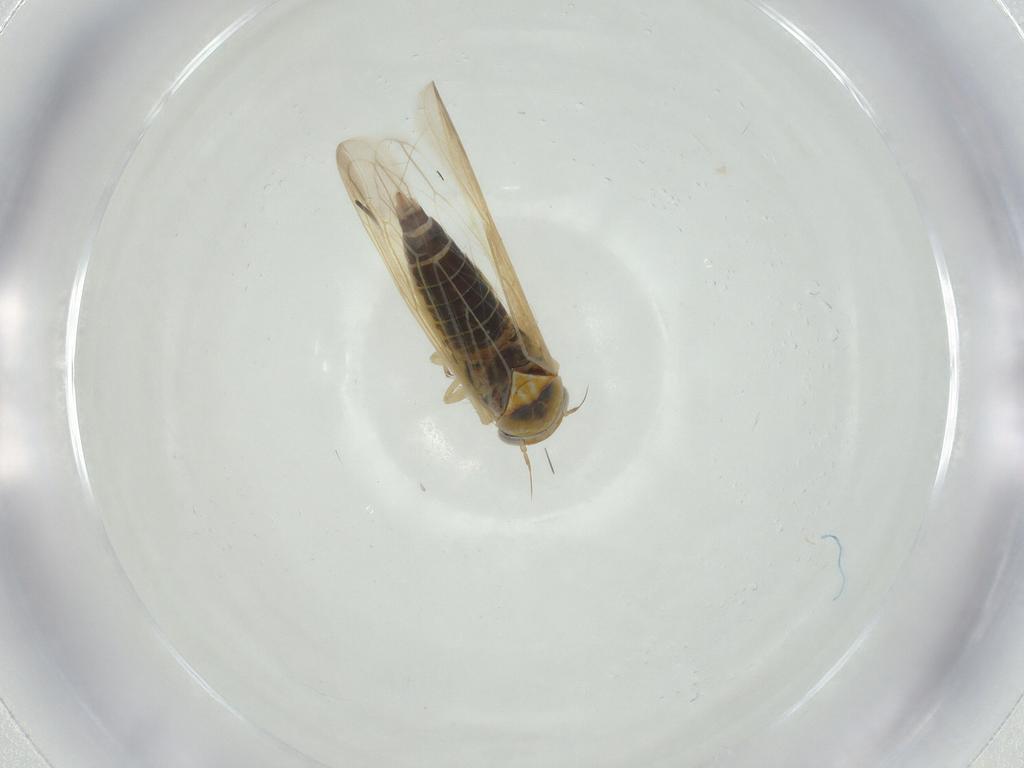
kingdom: Animalia
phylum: Arthropoda
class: Insecta
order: Hemiptera
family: Cicadellidae
